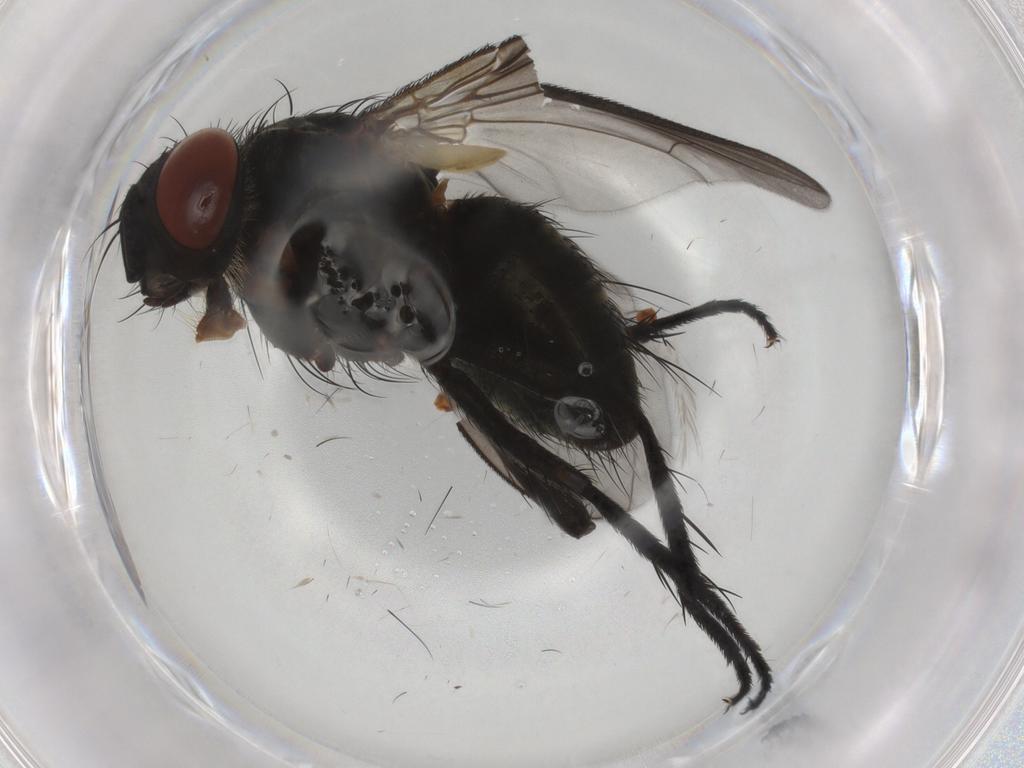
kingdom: Animalia
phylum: Arthropoda
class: Insecta
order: Diptera
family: Tachinidae
